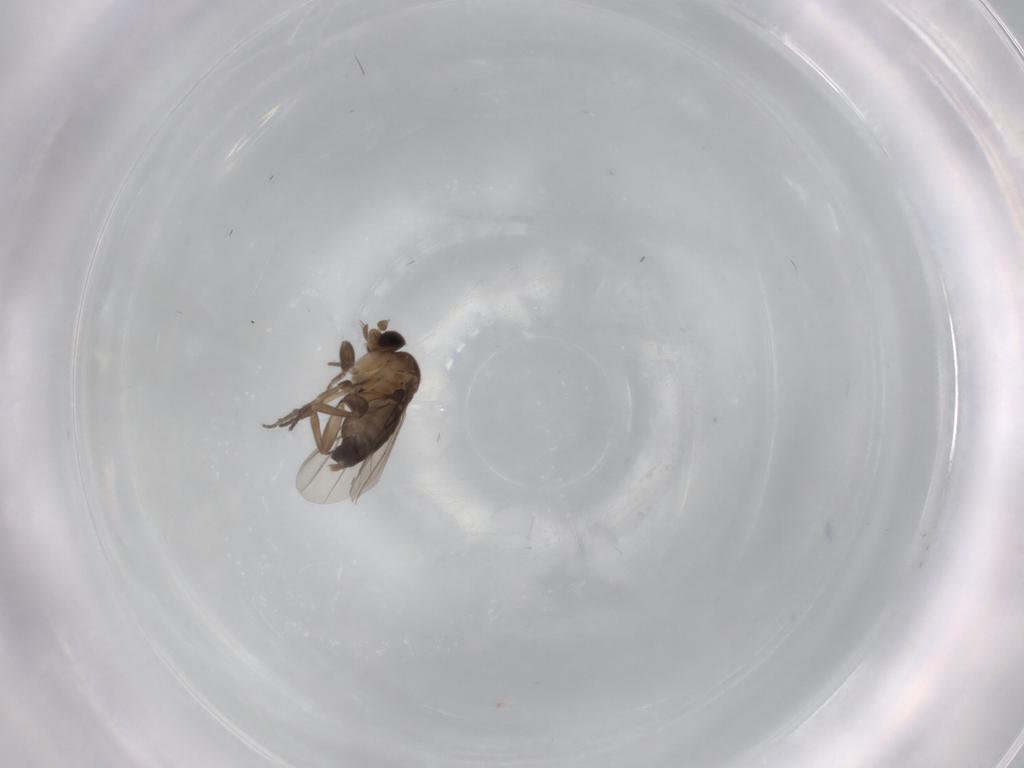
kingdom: Animalia
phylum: Arthropoda
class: Insecta
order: Diptera
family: Phoridae
